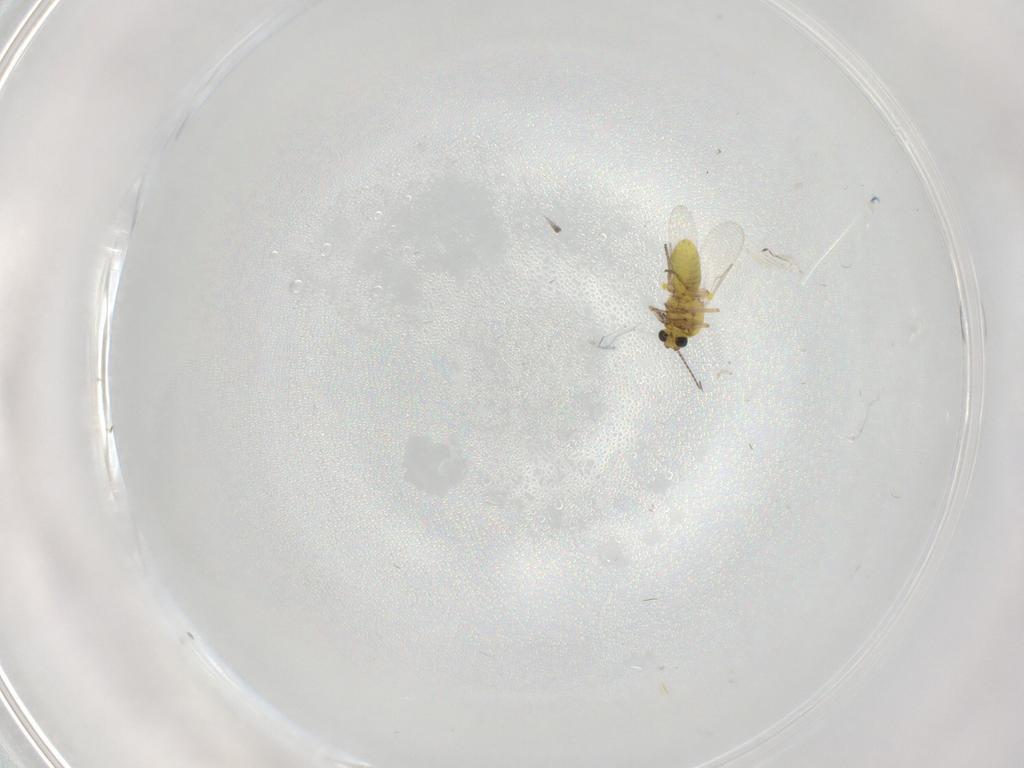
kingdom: Animalia
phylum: Arthropoda
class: Insecta
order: Diptera
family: Ceratopogonidae
